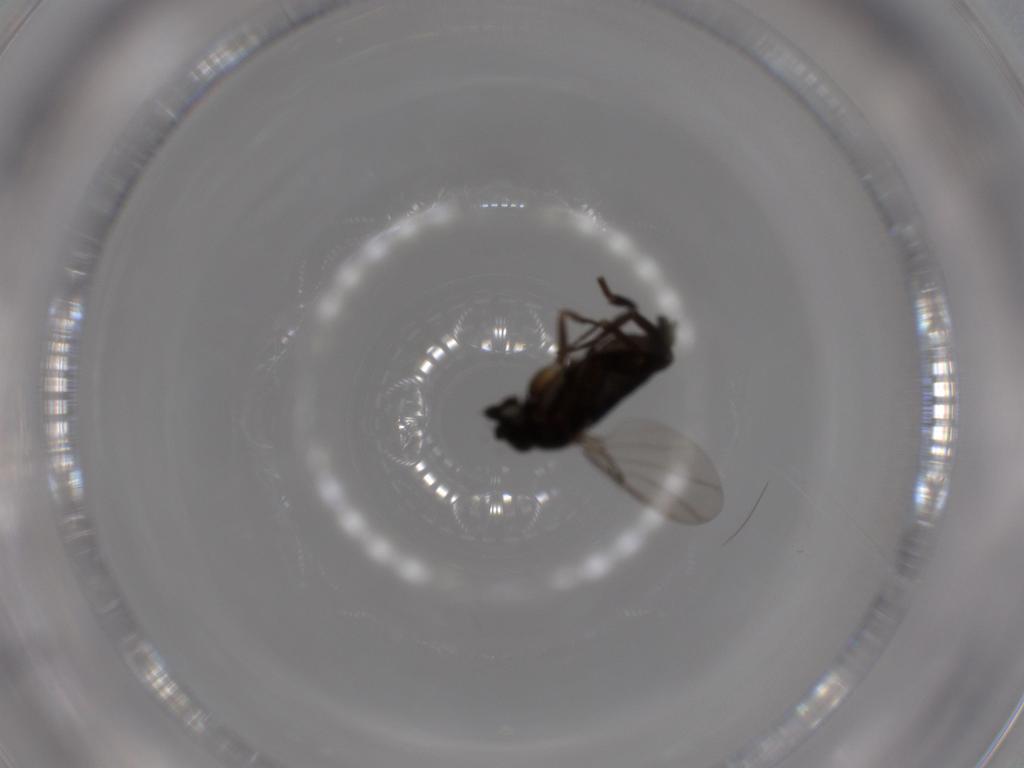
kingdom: Animalia
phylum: Arthropoda
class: Insecta
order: Diptera
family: Phoridae
